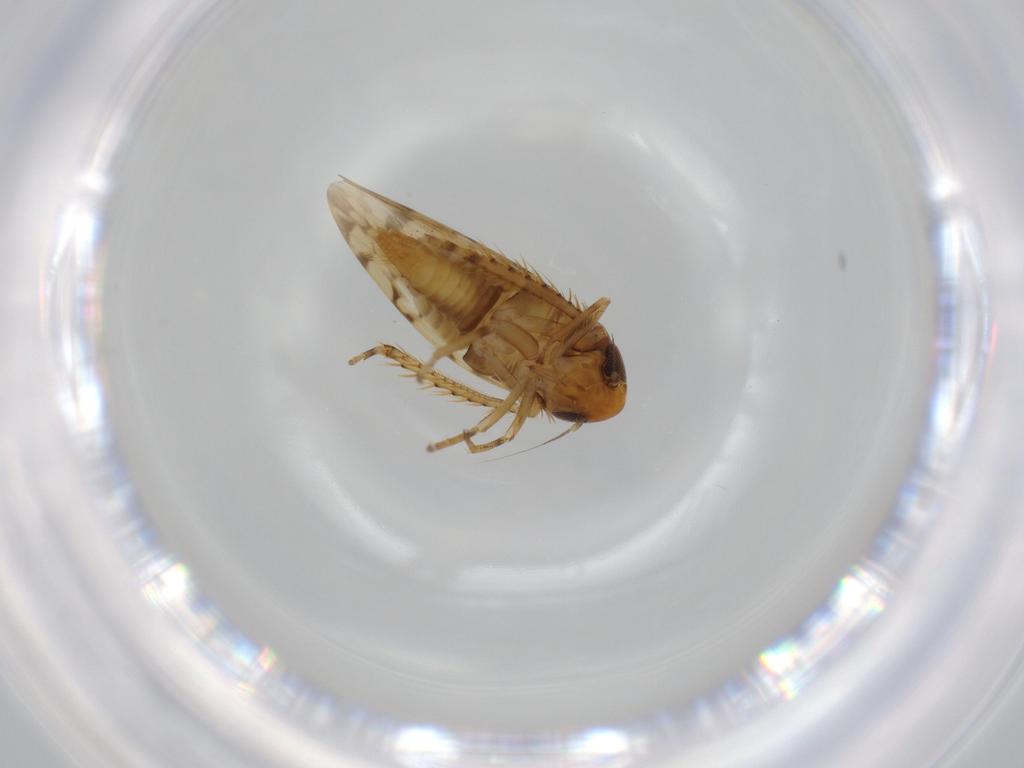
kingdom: Animalia
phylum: Arthropoda
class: Insecta
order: Hemiptera
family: Cicadellidae
